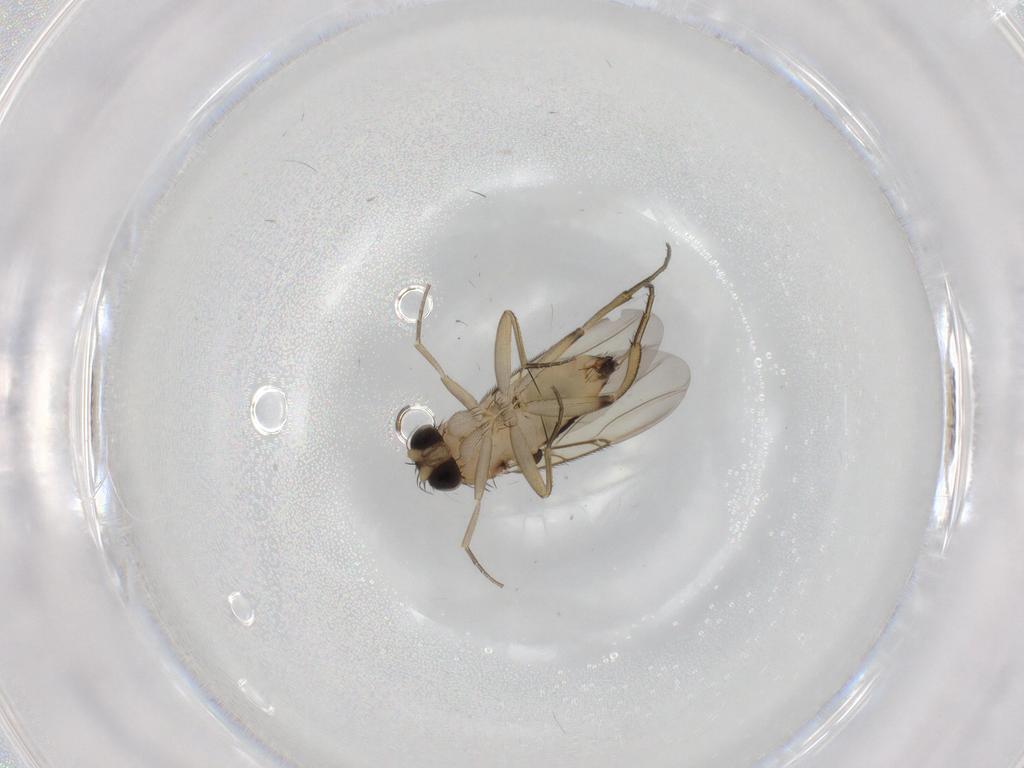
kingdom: Animalia
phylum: Arthropoda
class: Insecta
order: Diptera
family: Phoridae
